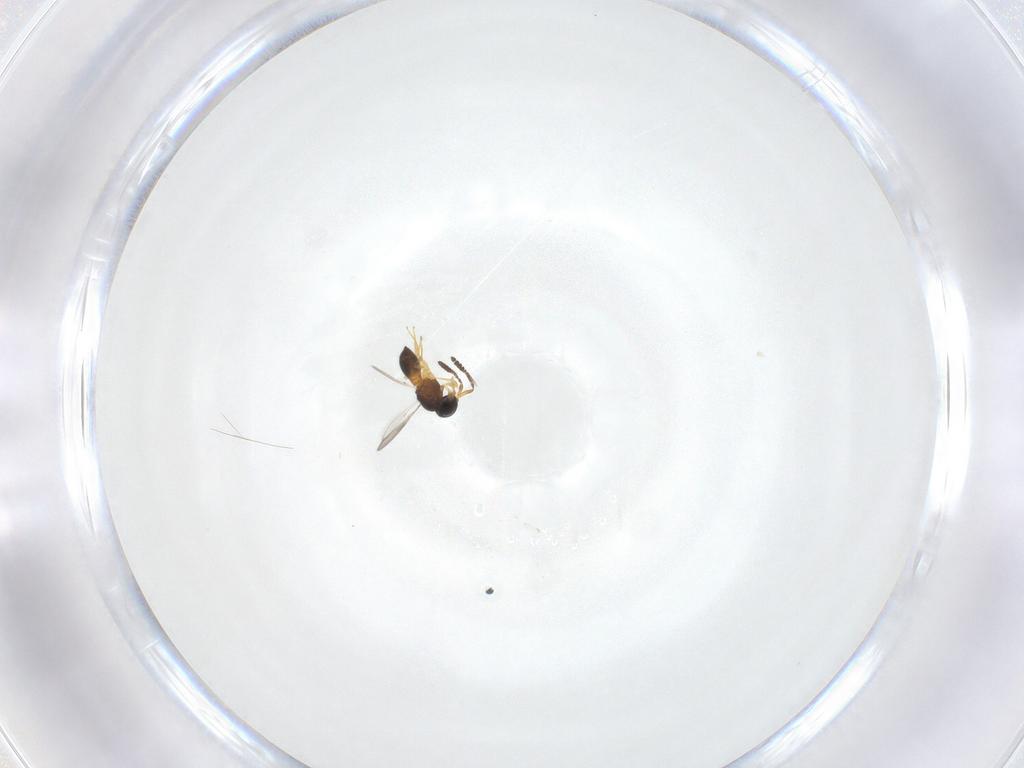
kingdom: Animalia
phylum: Arthropoda
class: Insecta
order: Hymenoptera
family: Scelionidae
